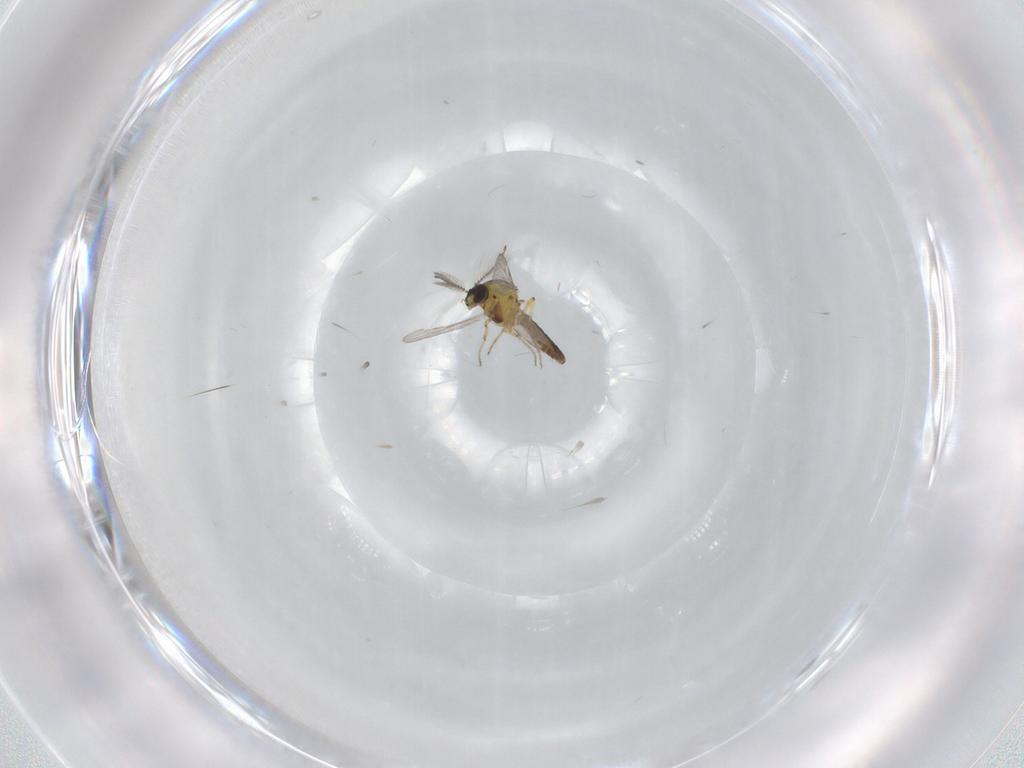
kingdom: Animalia
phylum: Arthropoda
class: Insecta
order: Diptera
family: Ceratopogonidae
